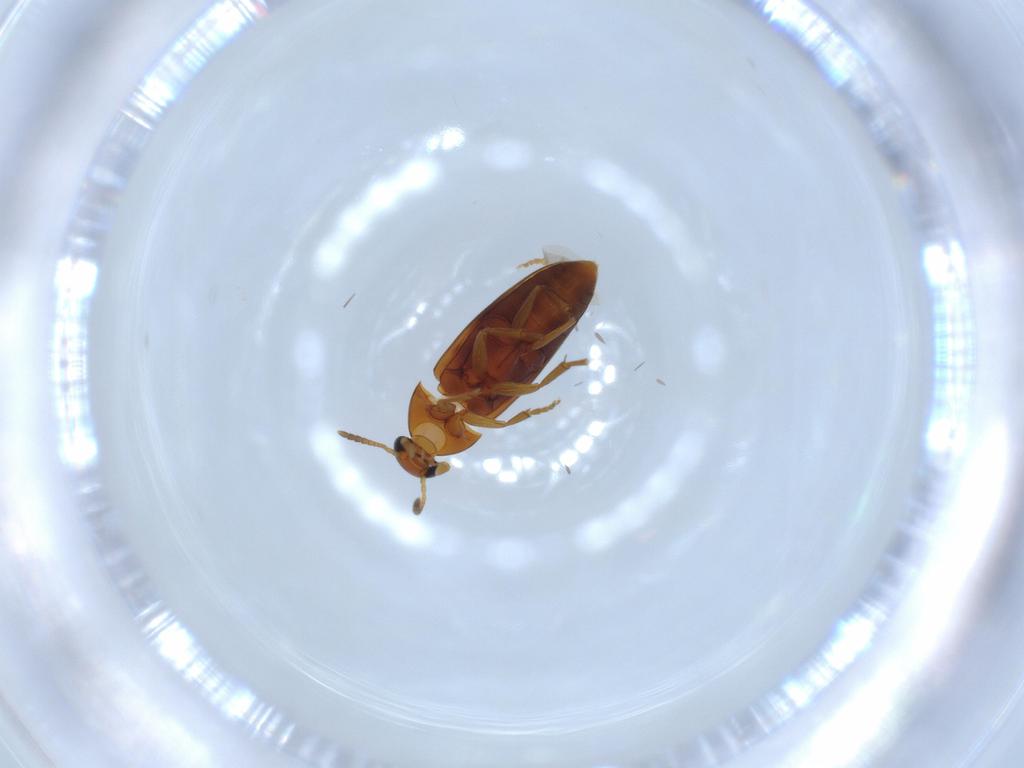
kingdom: Animalia
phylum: Arthropoda
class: Insecta
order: Coleoptera
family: Scraptiidae
